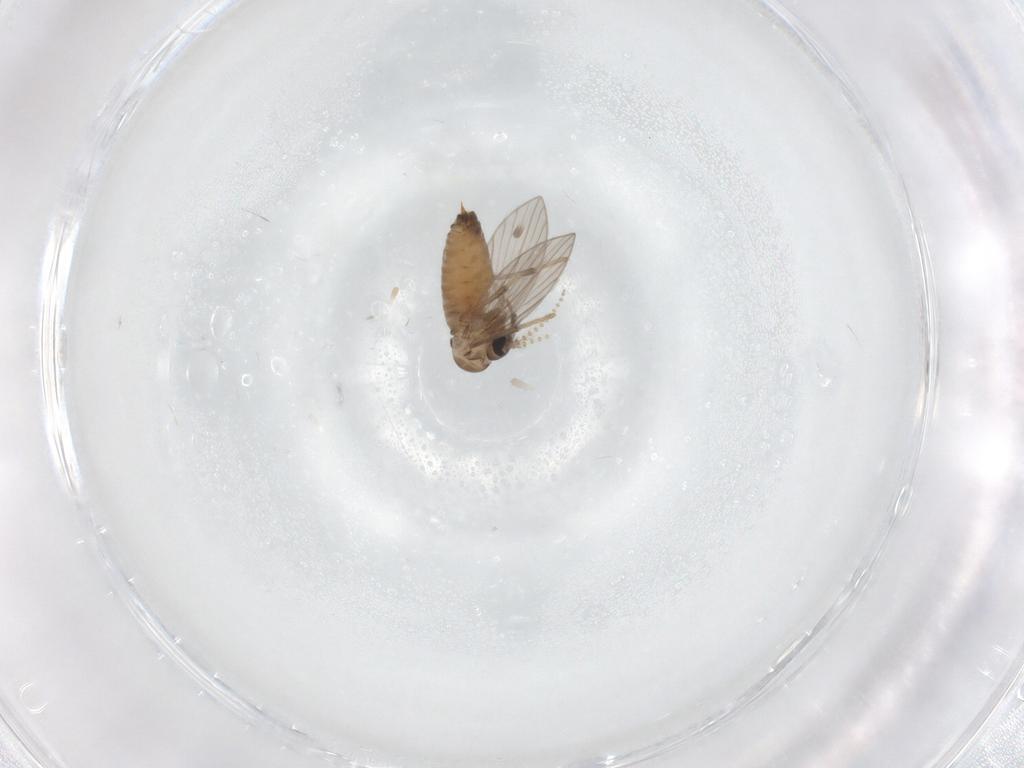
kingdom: Animalia
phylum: Arthropoda
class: Insecta
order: Diptera
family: Psychodidae
